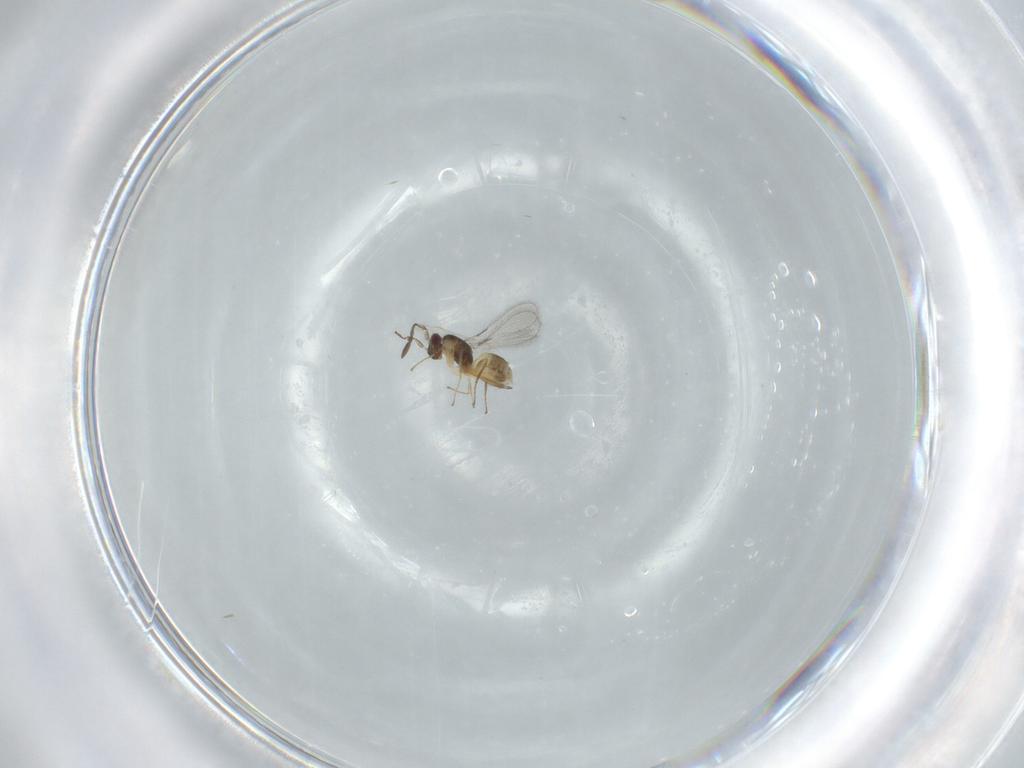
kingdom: Animalia
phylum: Arthropoda
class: Insecta
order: Hymenoptera
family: Mymaridae
